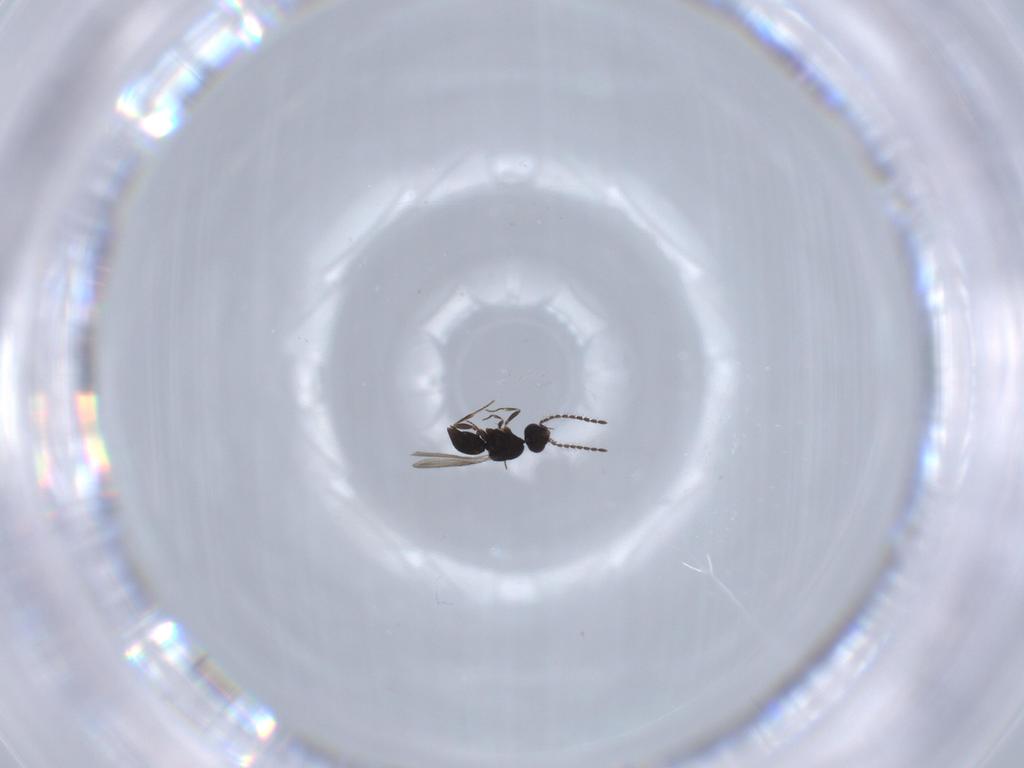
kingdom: Animalia
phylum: Arthropoda
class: Insecta
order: Hymenoptera
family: Diapriidae
